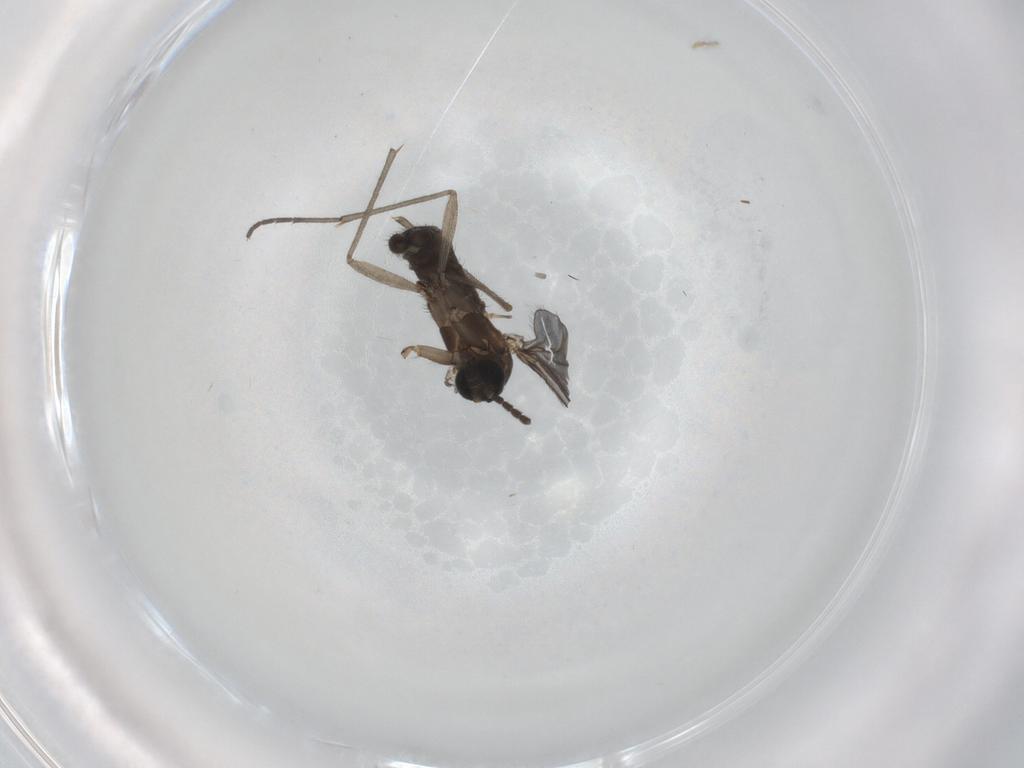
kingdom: Animalia
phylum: Arthropoda
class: Insecta
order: Diptera
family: Sciaridae
